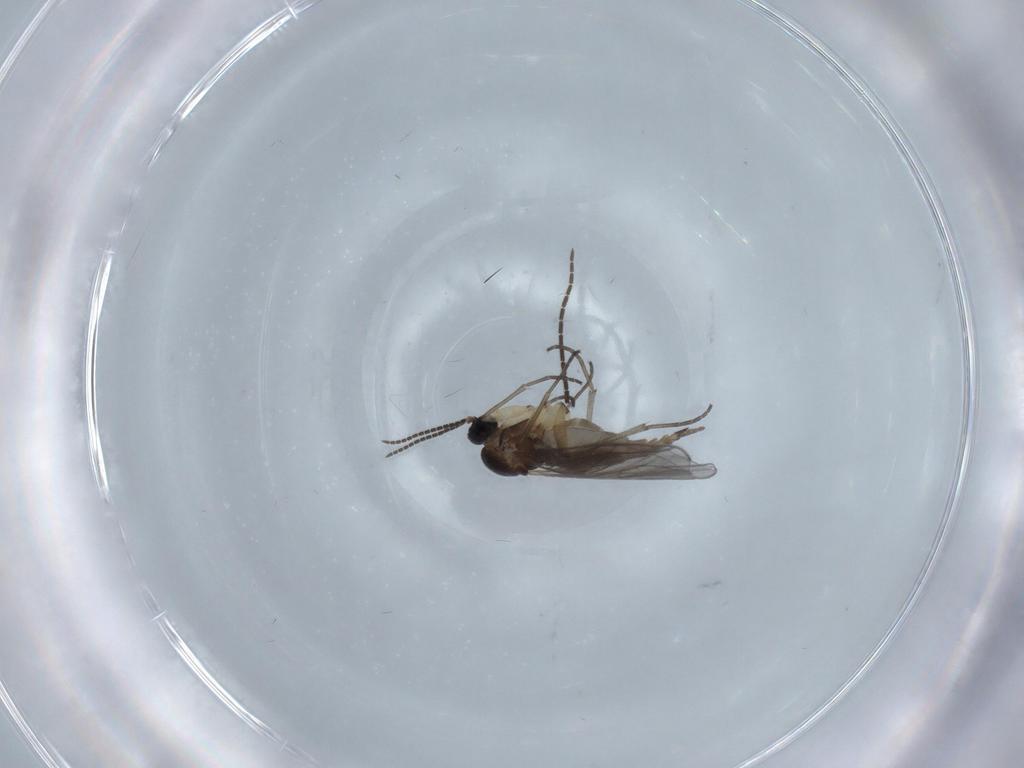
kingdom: Animalia
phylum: Arthropoda
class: Insecta
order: Diptera
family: Sciaridae
